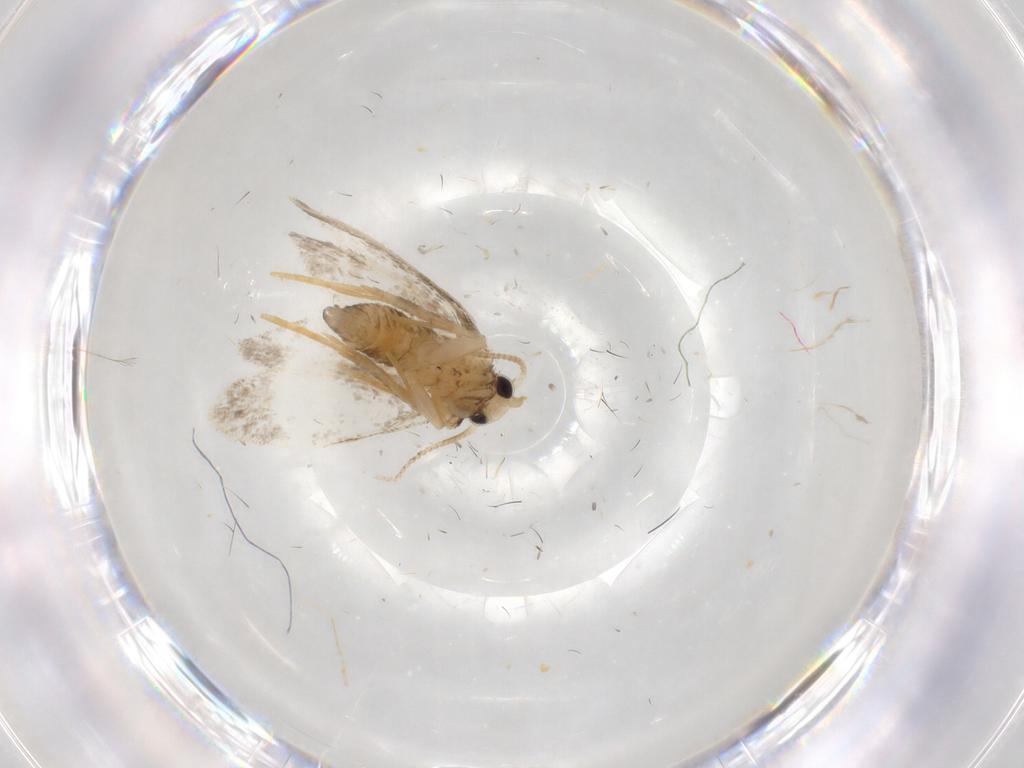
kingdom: Animalia
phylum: Arthropoda
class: Insecta
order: Lepidoptera
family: Psychidae
